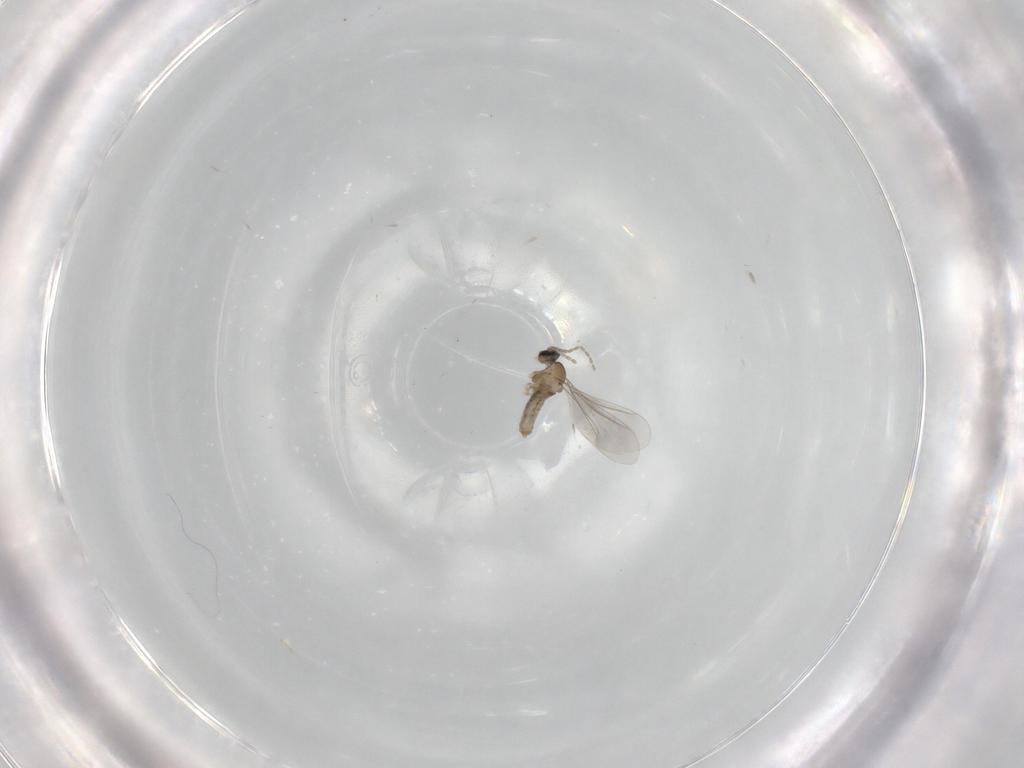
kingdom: Animalia
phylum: Arthropoda
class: Insecta
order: Diptera
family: Cecidomyiidae
